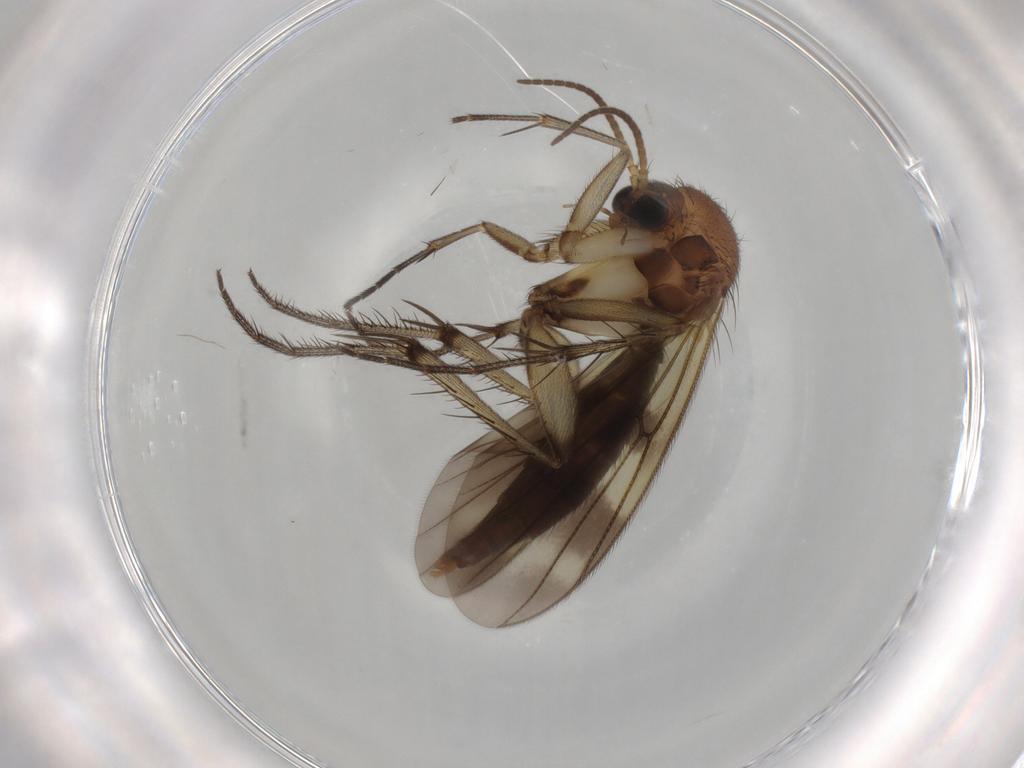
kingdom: Animalia
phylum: Arthropoda
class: Insecta
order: Diptera
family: Mycetophilidae
